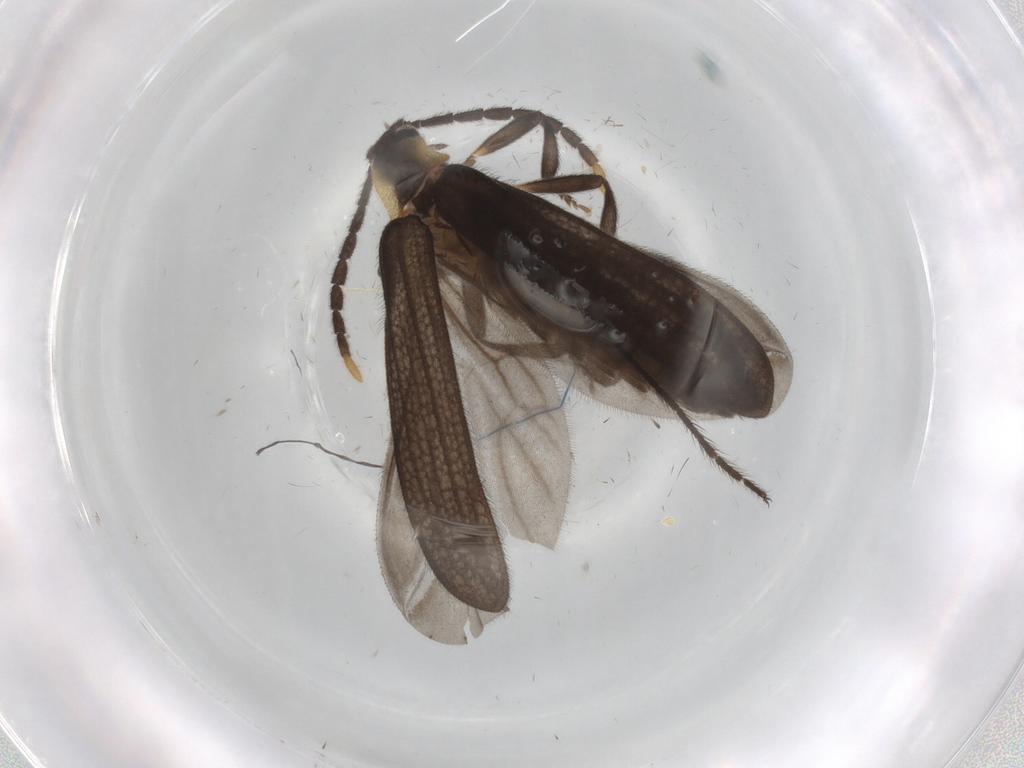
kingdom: Animalia
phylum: Arthropoda
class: Insecta
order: Coleoptera
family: Lycidae
